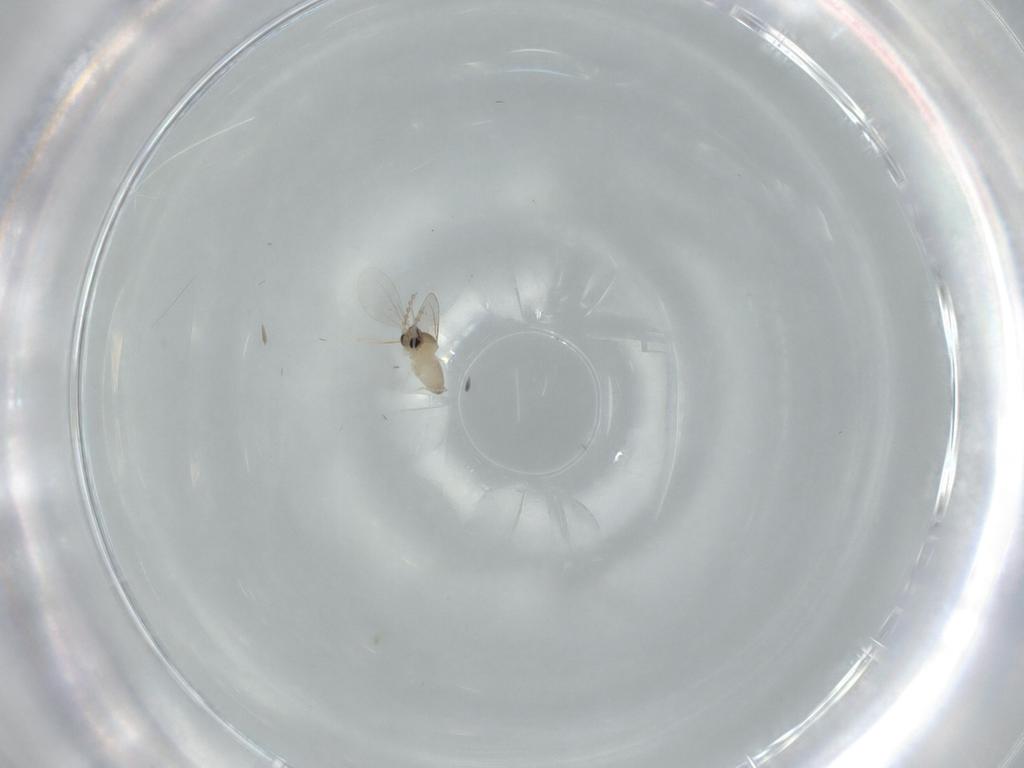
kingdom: Animalia
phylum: Arthropoda
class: Insecta
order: Diptera
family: Cecidomyiidae
